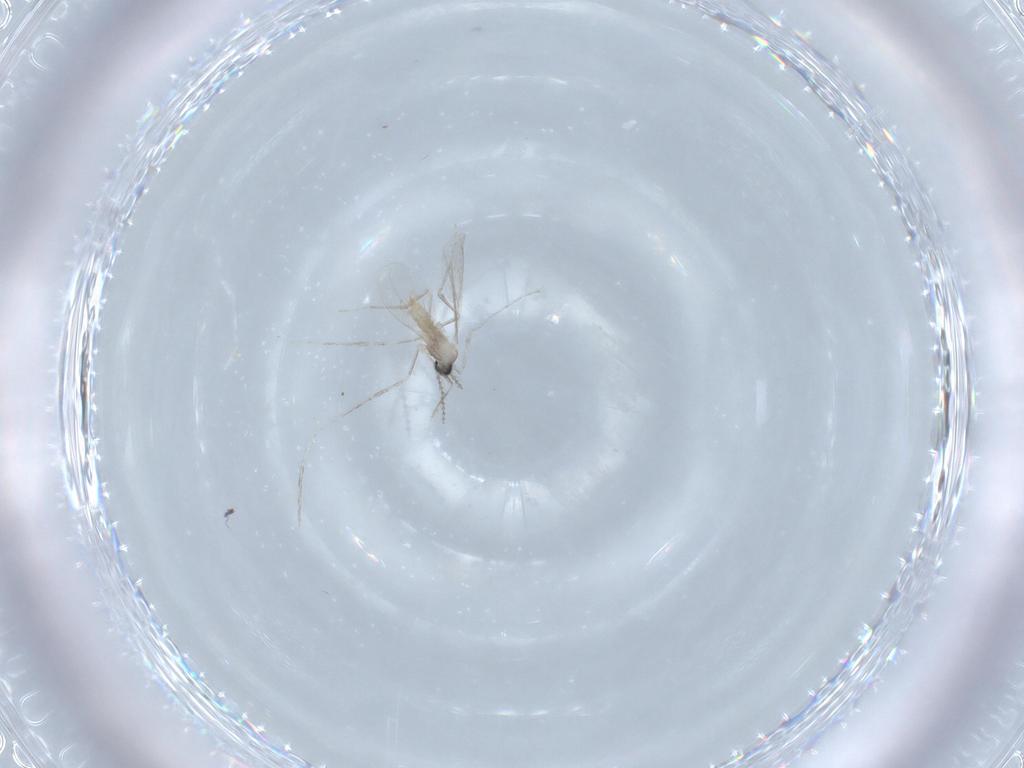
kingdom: Animalia
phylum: Arthropoda
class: Insecta
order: Diptera
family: Cecidomyiidae
